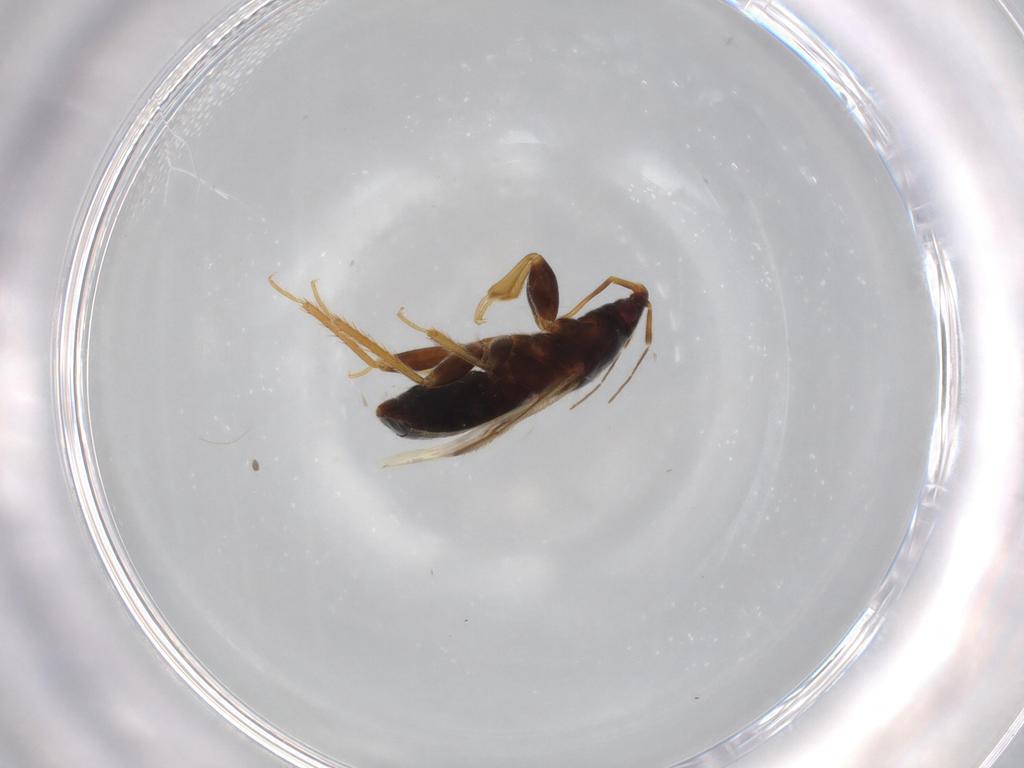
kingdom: Animalia
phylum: Arthropoda
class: Insecta
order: Hemiptera
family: Anthocoridae
